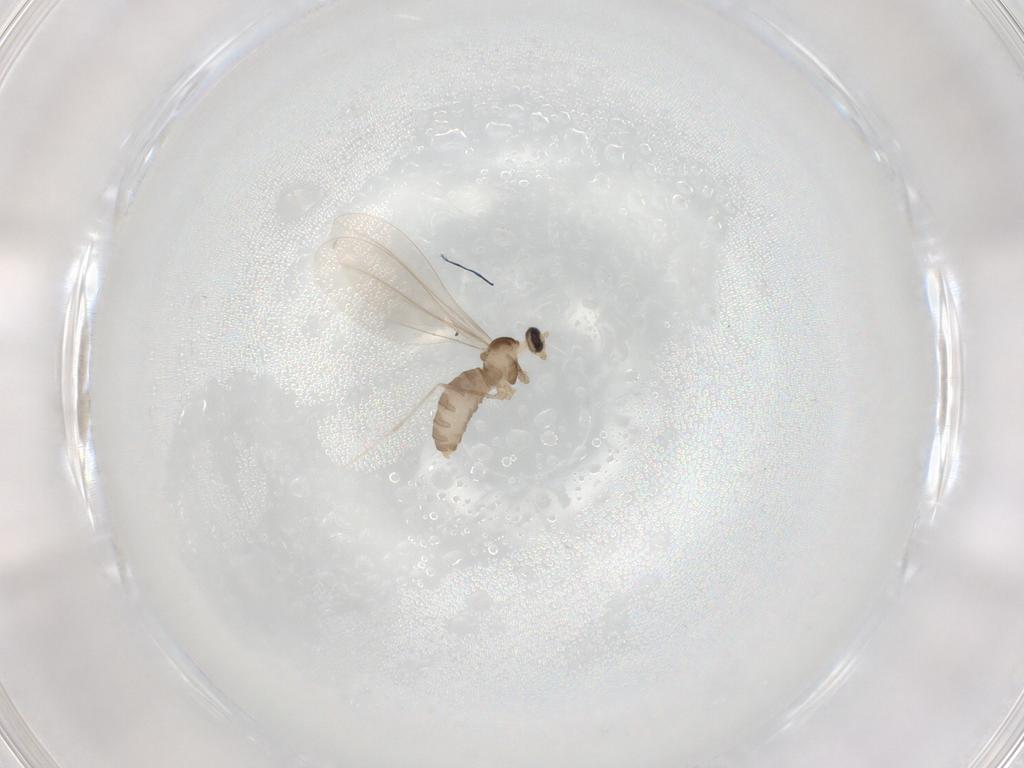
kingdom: Animalia
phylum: Arthropoda
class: Insecta
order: Diptera
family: Cecidomyiidae
